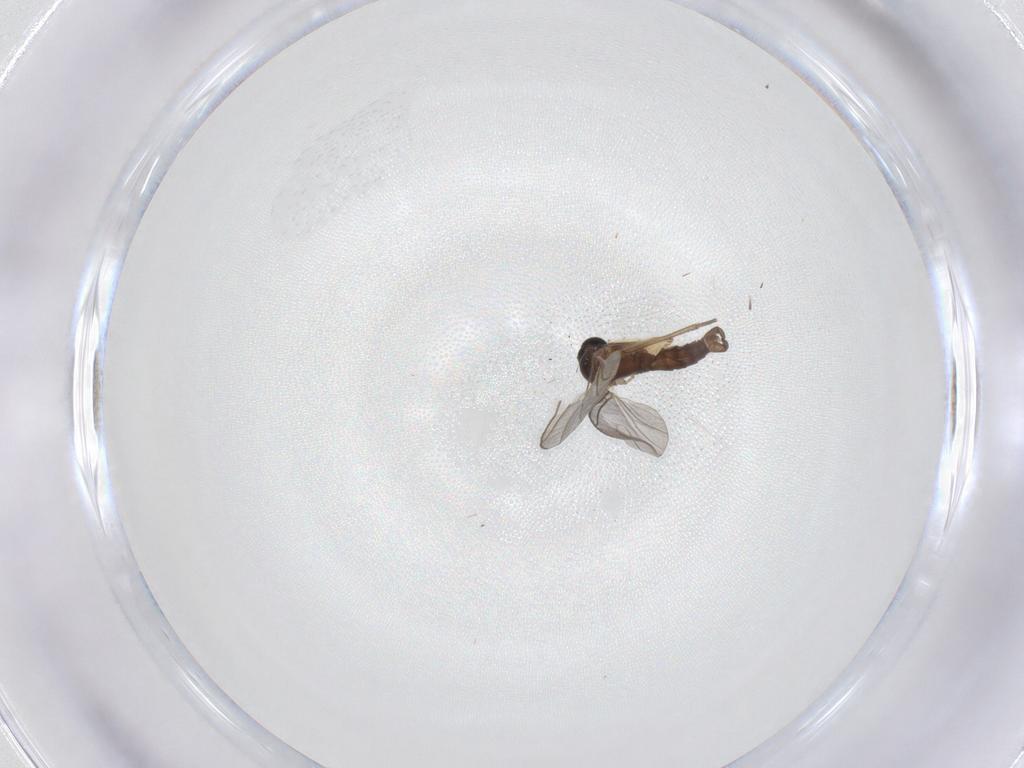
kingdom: Animalia
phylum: Arthropoda
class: Insecta
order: Diptera
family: Sciaridae
